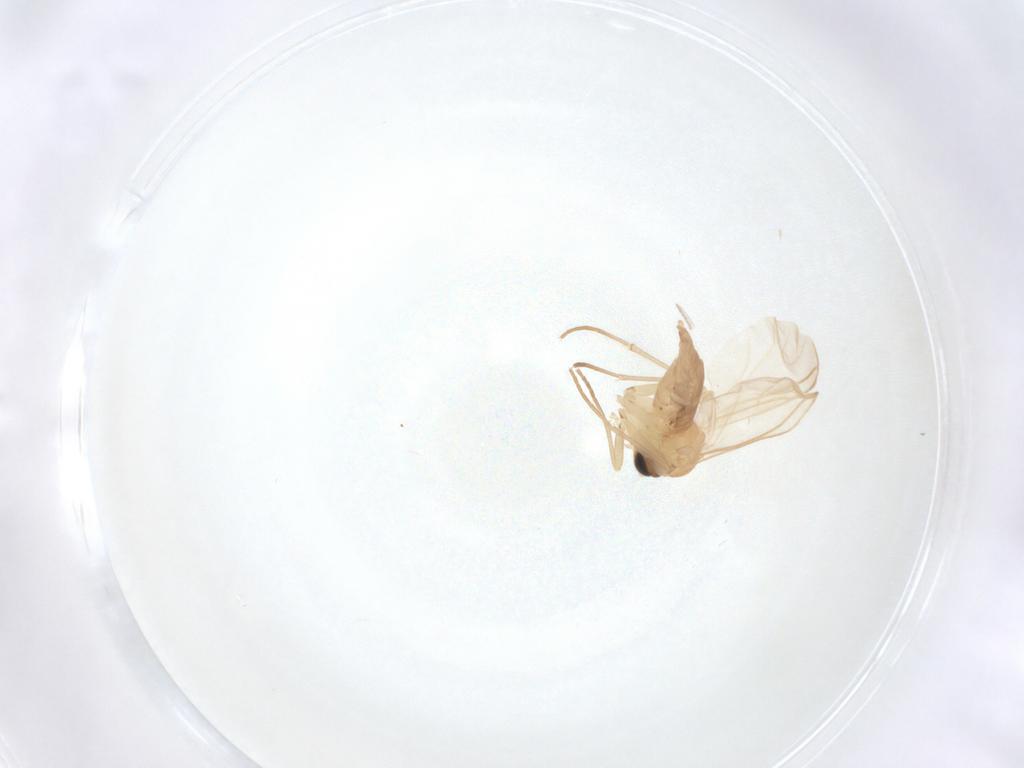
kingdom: Animalia
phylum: Arthropoda
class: Insecta
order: Diptera
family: Sciaridae
